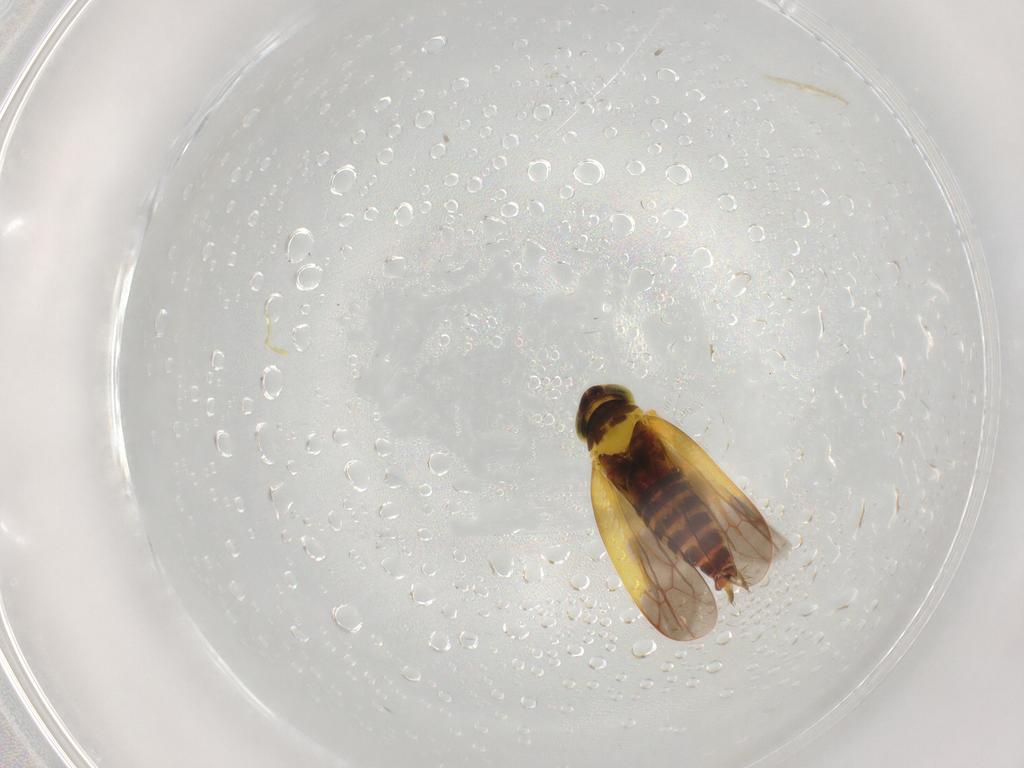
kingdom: Animalia
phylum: Arthropoda
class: Insecta
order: Hemiptera
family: Cicadellidae
